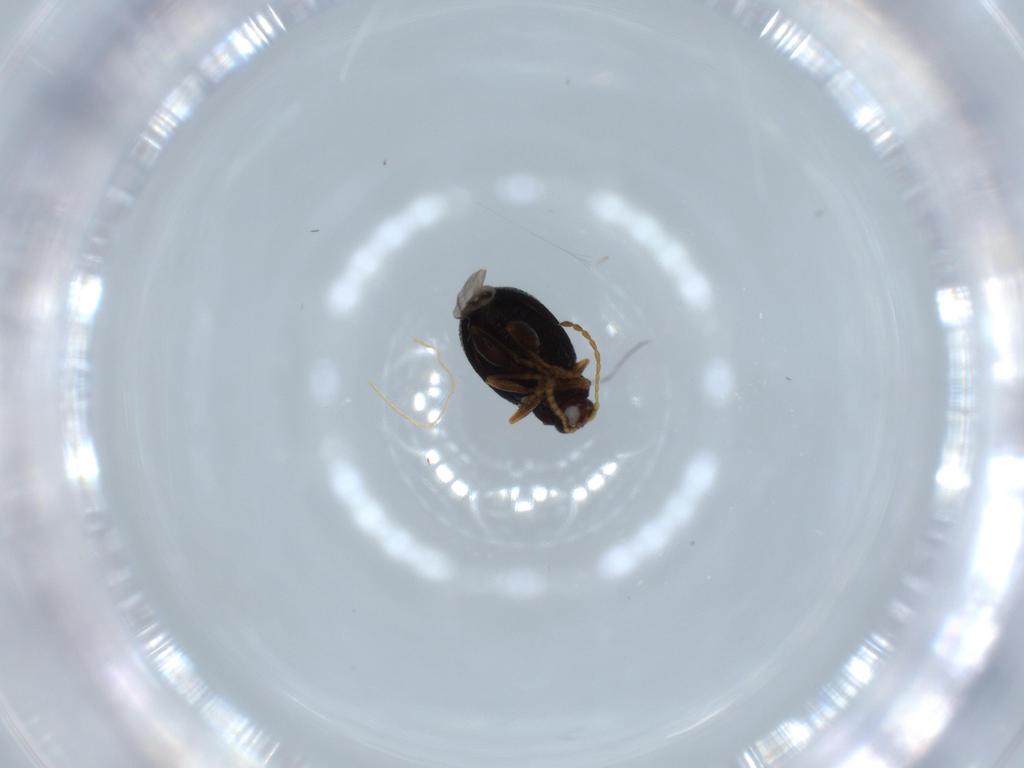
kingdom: Animalia
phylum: Arthropoda
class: Insecta
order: Coleoptera
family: Chrysomelidae
